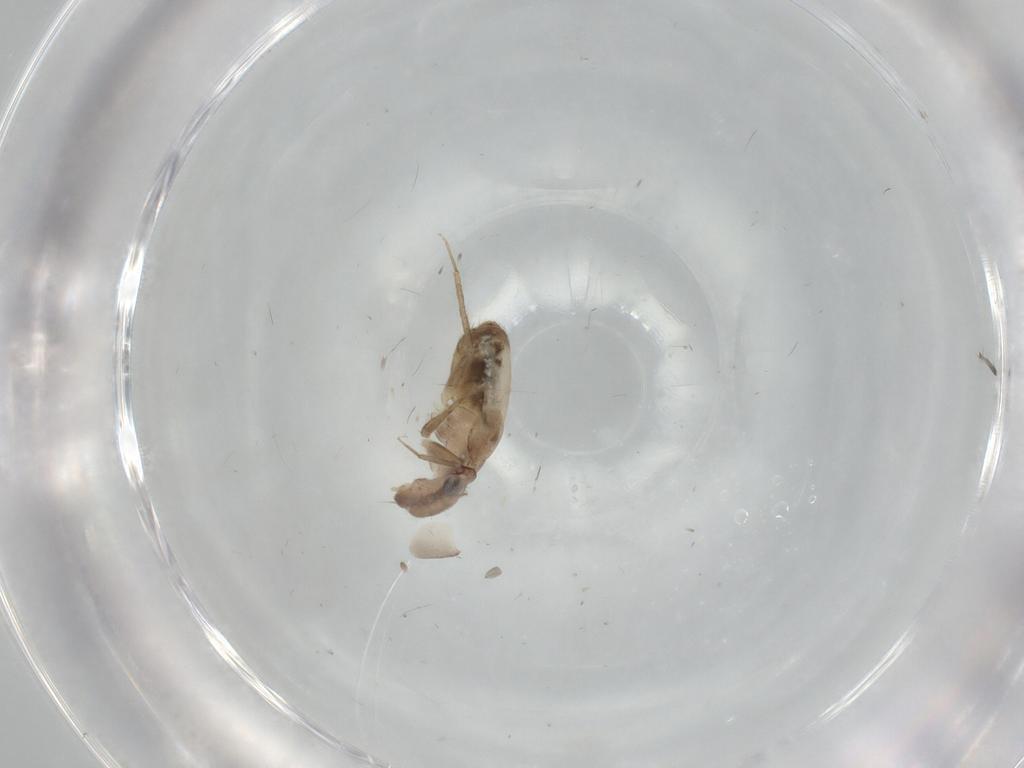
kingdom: Animalia
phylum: Arthropoda
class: Insecta
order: Psocodea
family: Lepidopsocidae
